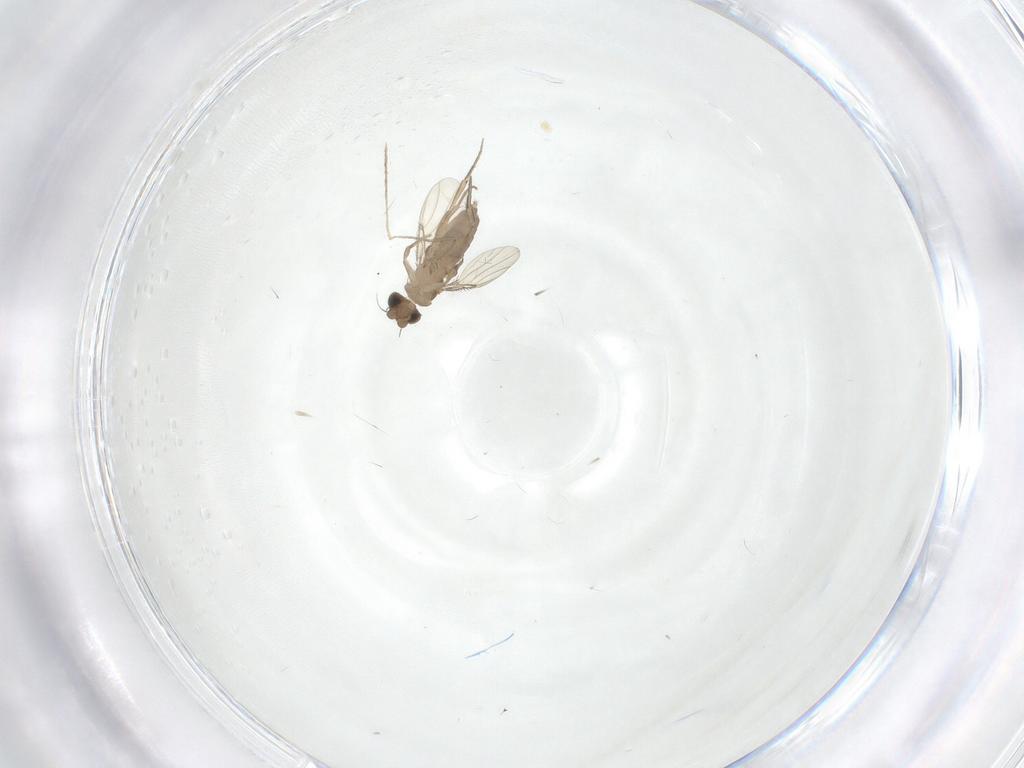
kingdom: Animalia
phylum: Arthropoda
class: Insecta
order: Diptera
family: Phoridae
